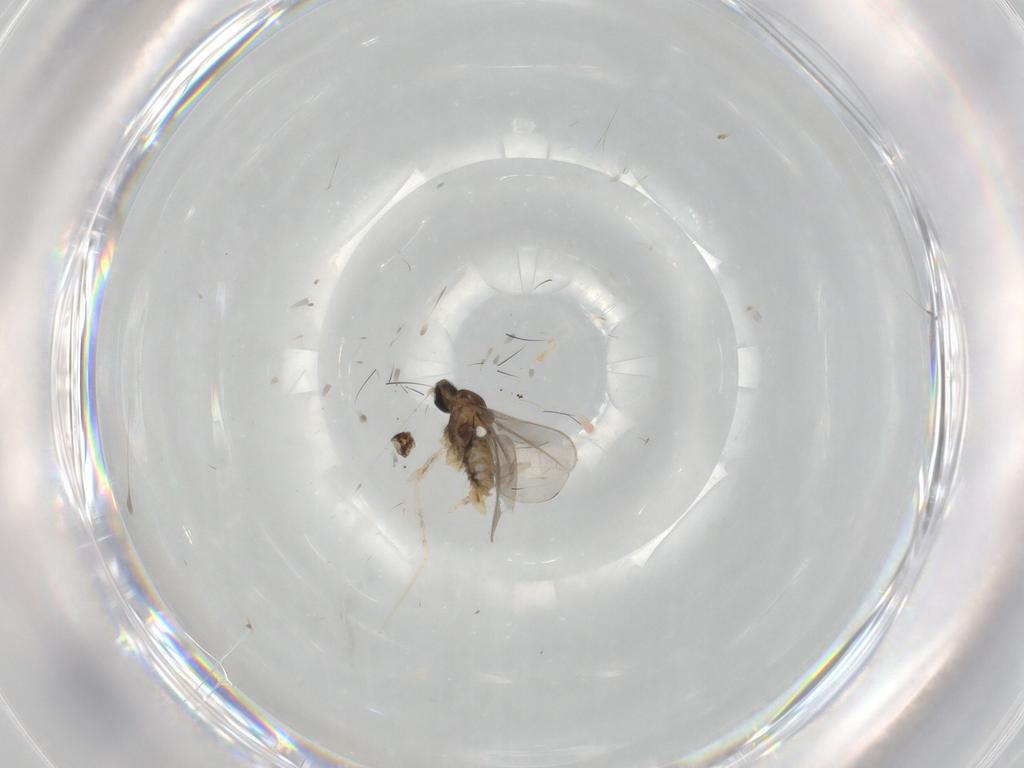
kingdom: Animalia
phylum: Arthropoda
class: Insecta
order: Diptera
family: Cecidomyiidae
